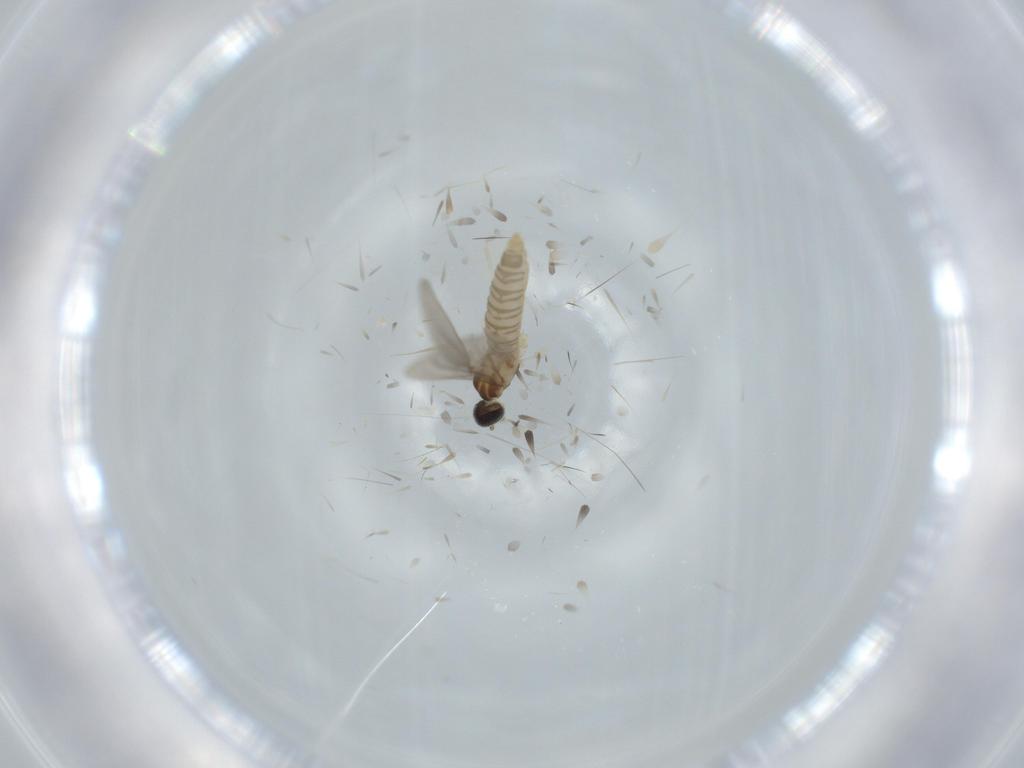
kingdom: Animalia
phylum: Arthropoda
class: Insecta
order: Diptera
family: Cecidomyiidae
